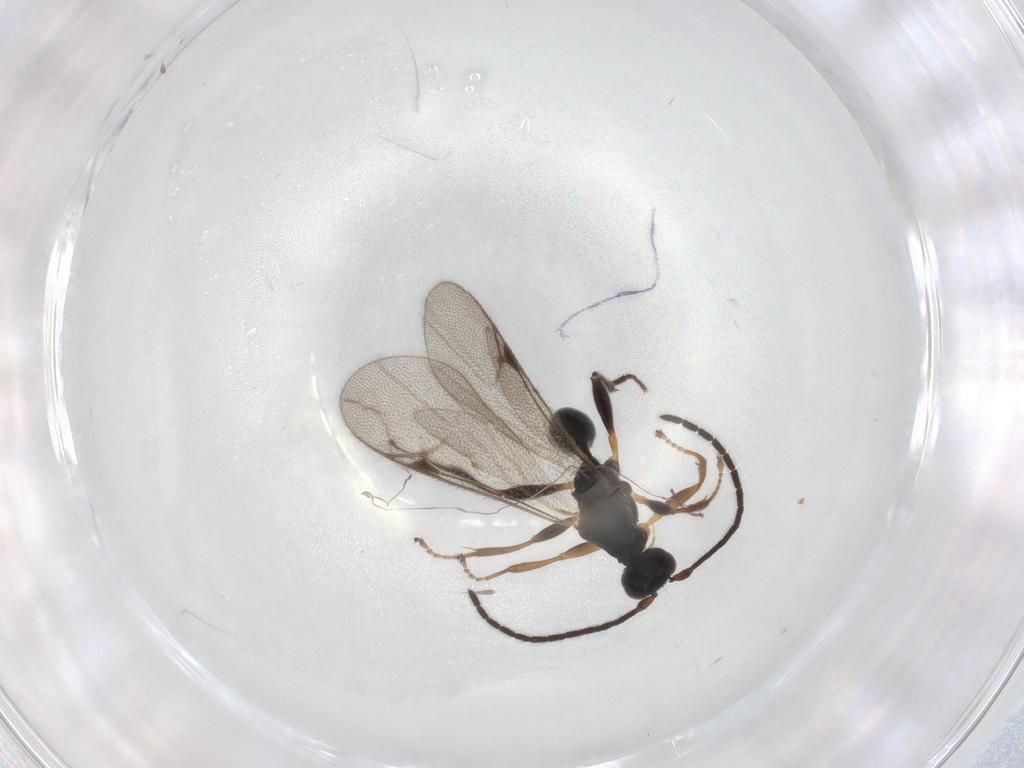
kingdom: Animalia
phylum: Arthropoda
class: Insecta
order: Hymenoptera
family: Proctotrupidae
